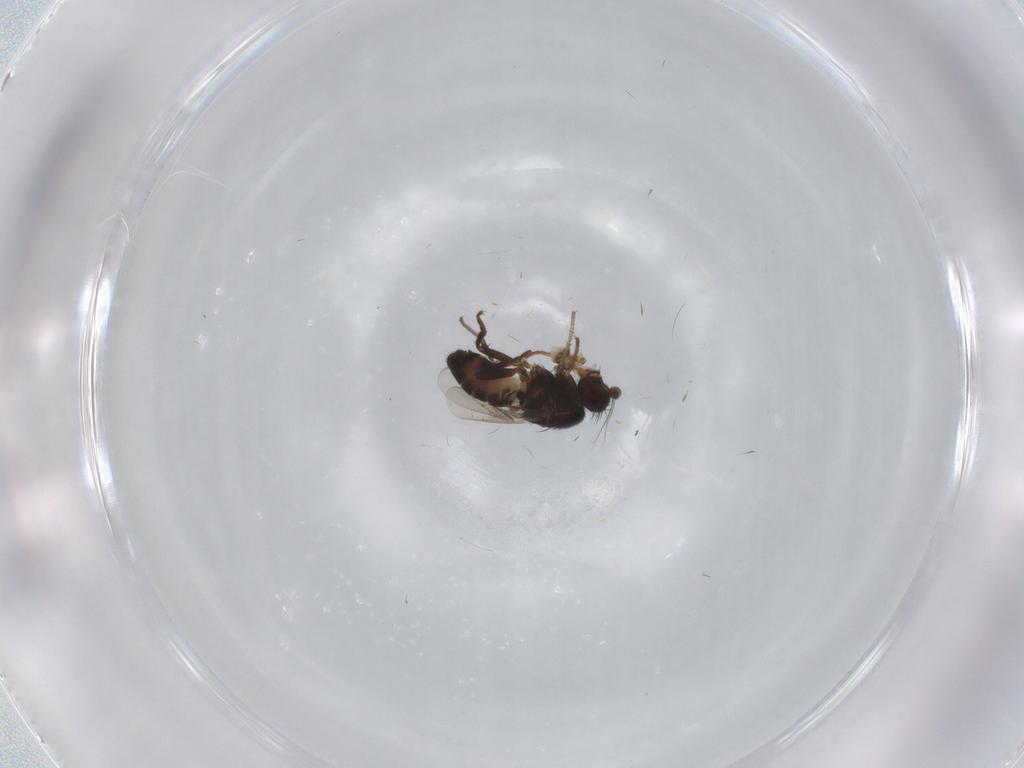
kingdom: Animalia
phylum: Arthropoda
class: Insecta
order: Diptera
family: Sphaeroceridae
